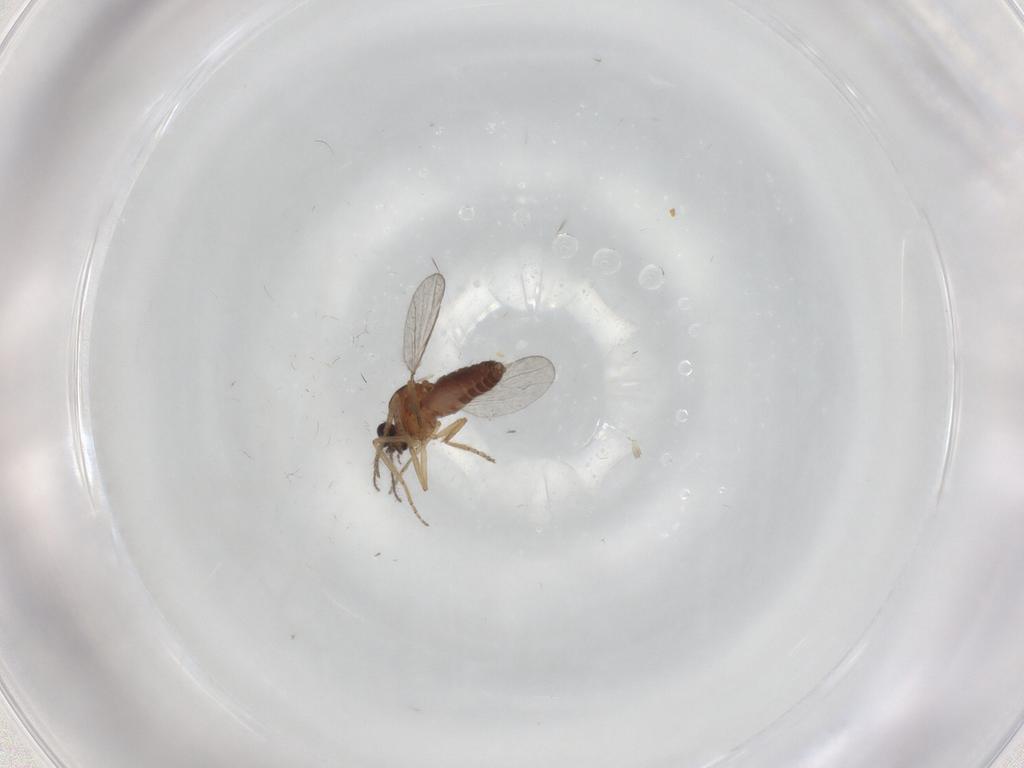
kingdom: Animalia
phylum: Arthropoda
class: Insecta
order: Diptera
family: Ceratopogonidae
